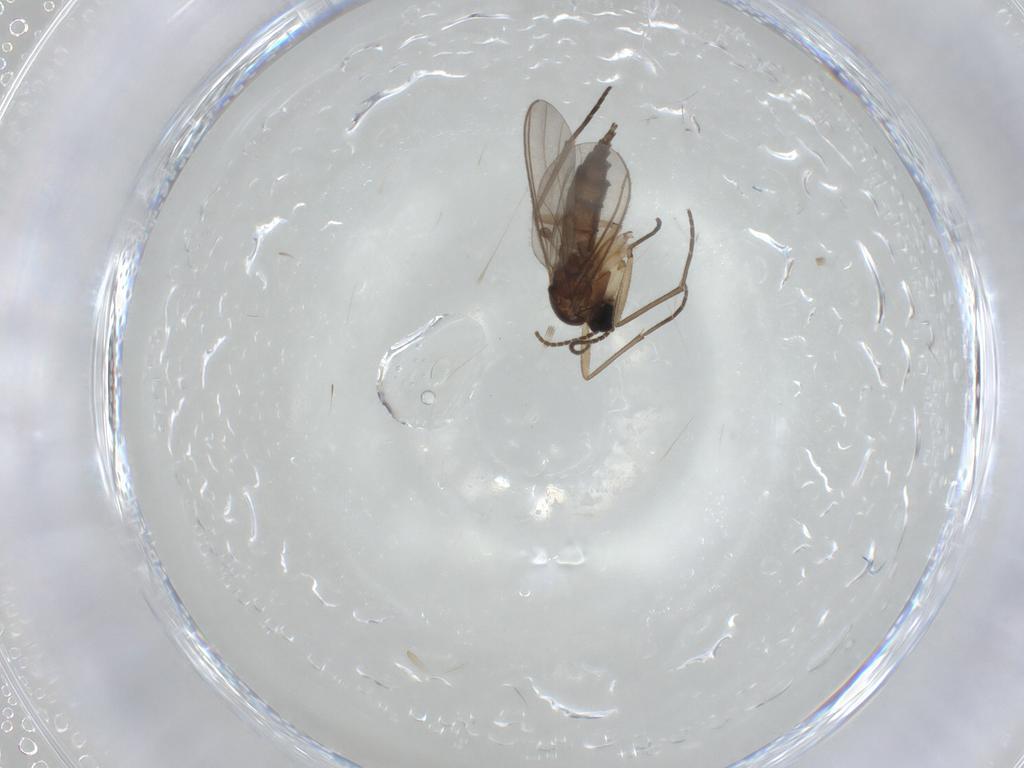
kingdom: Animalia
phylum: Arthropoda
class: Insecta
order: Diptera
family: Sciaridae
